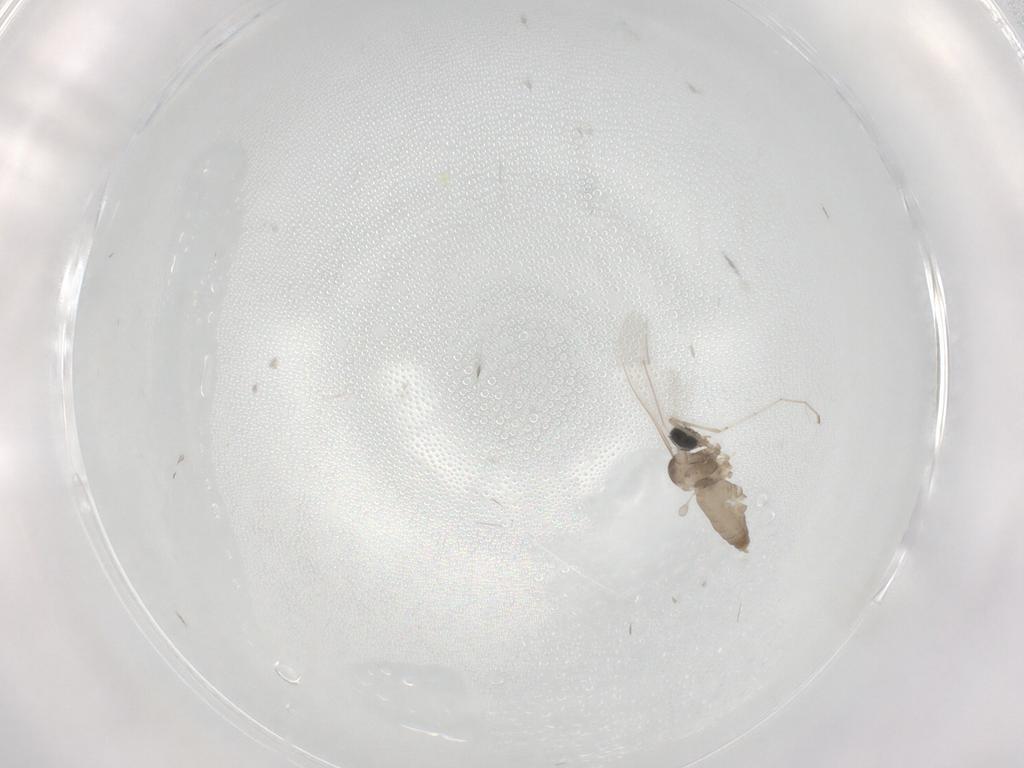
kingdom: Animalia
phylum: Arthropoda
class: Insecta
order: Diptera
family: Cecidomyiidae
